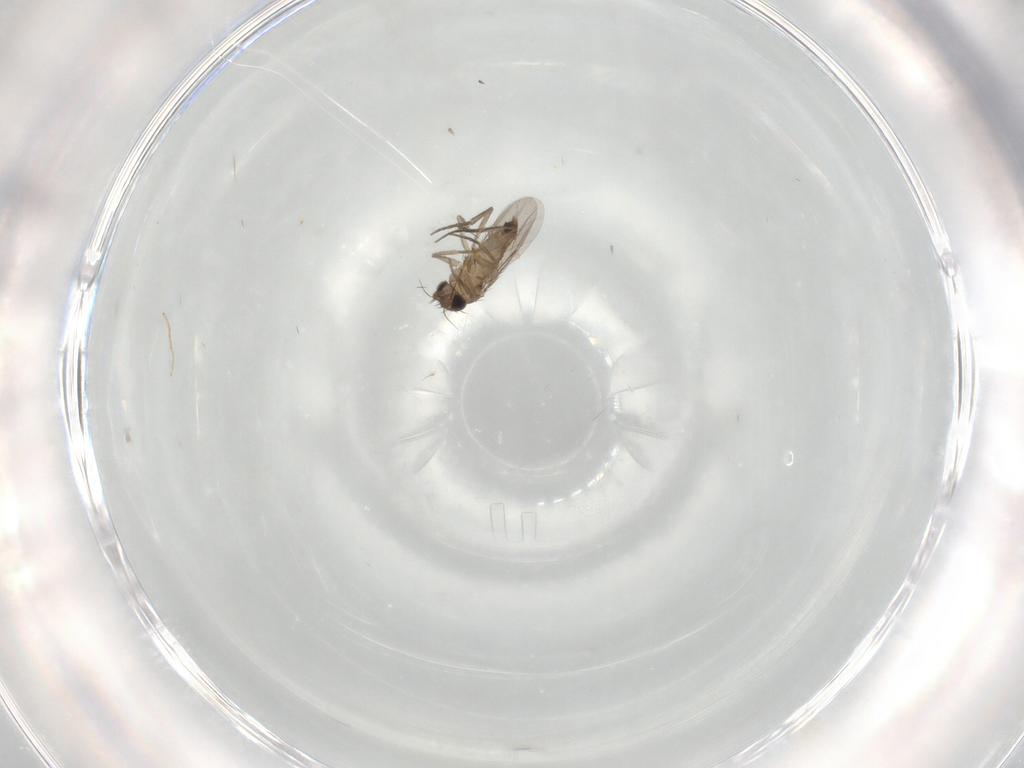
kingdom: Animalia
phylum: Arthropoda
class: Insecta
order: Diptera
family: Phoridae
